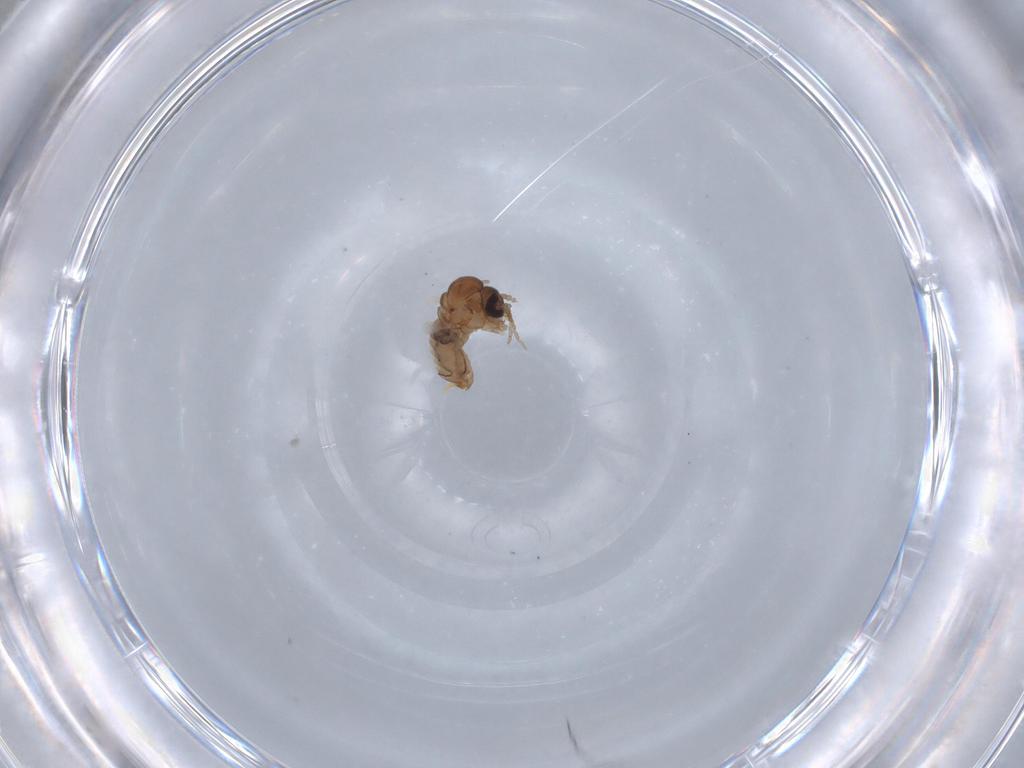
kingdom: Animalia
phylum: Arthropoda
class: Insecta
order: Diptera
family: Psychodidae
